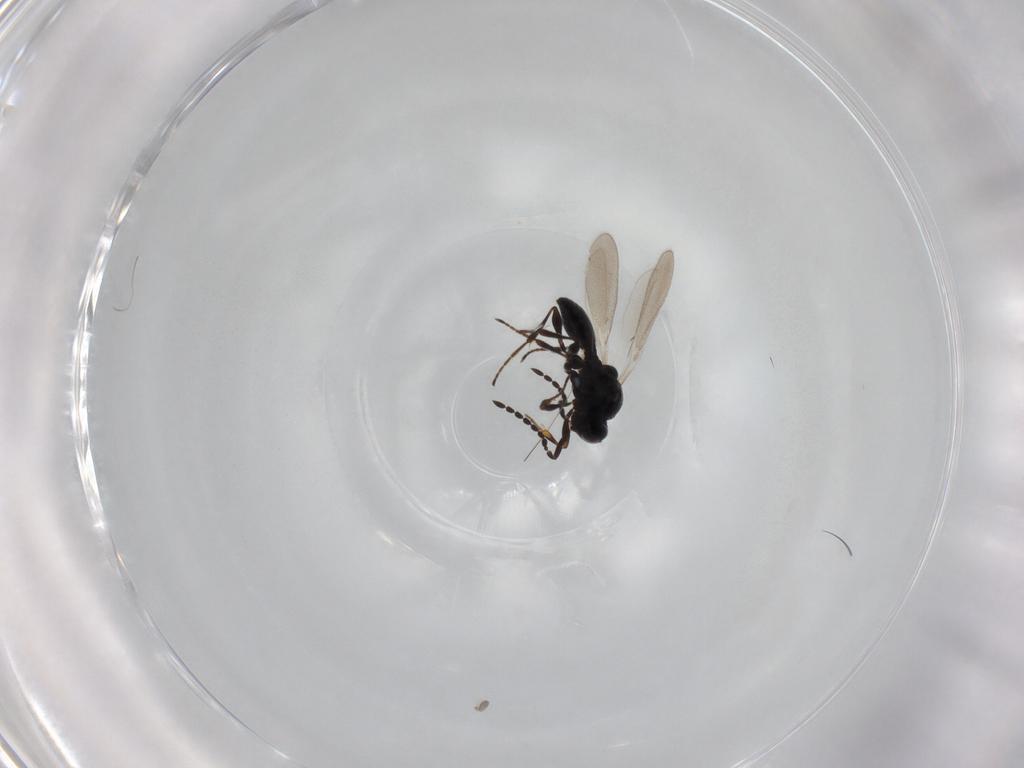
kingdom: Animalia
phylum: Arthropoda
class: Insecta
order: Hymenoptera
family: Platygastridae
